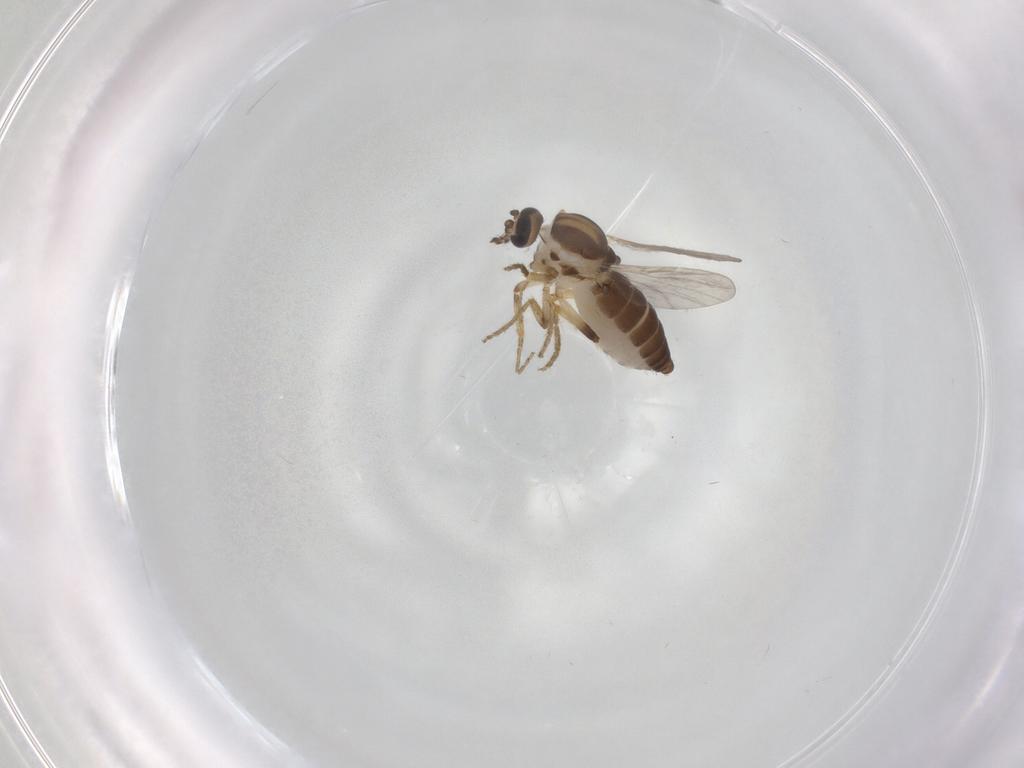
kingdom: Animalia
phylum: Arthropoda
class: Insecta
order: Diptera
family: Ceratopogonidae
